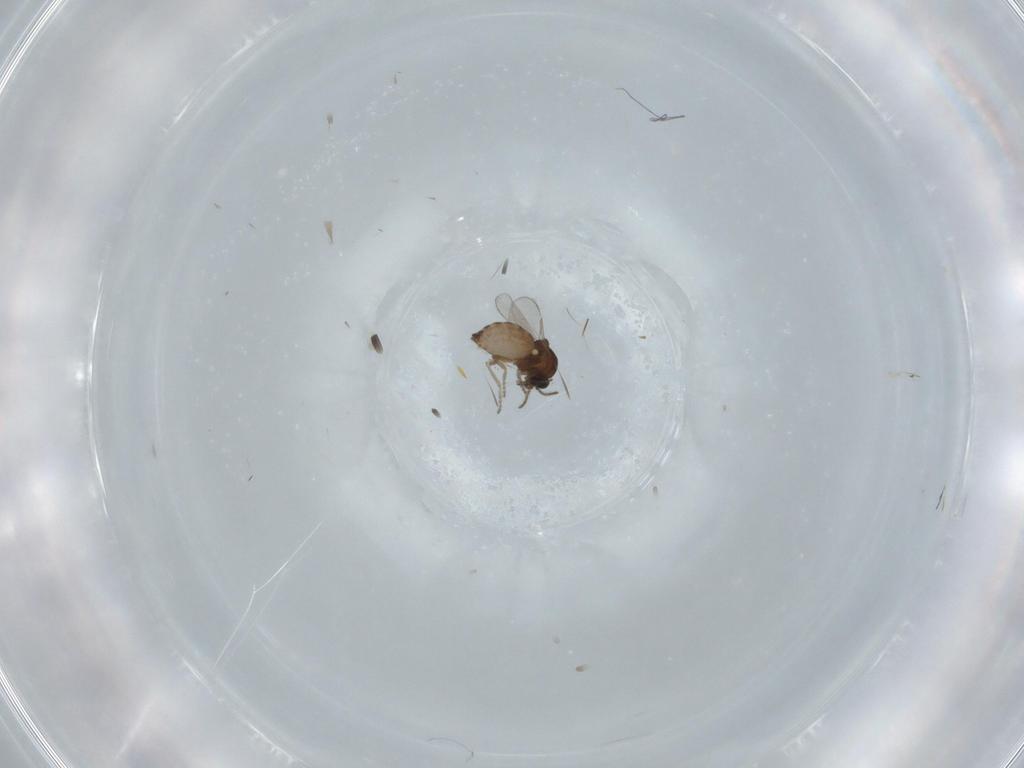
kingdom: Animalia
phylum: Arthropoda
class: Insecta
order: Diptera
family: Ceratopogonidae
